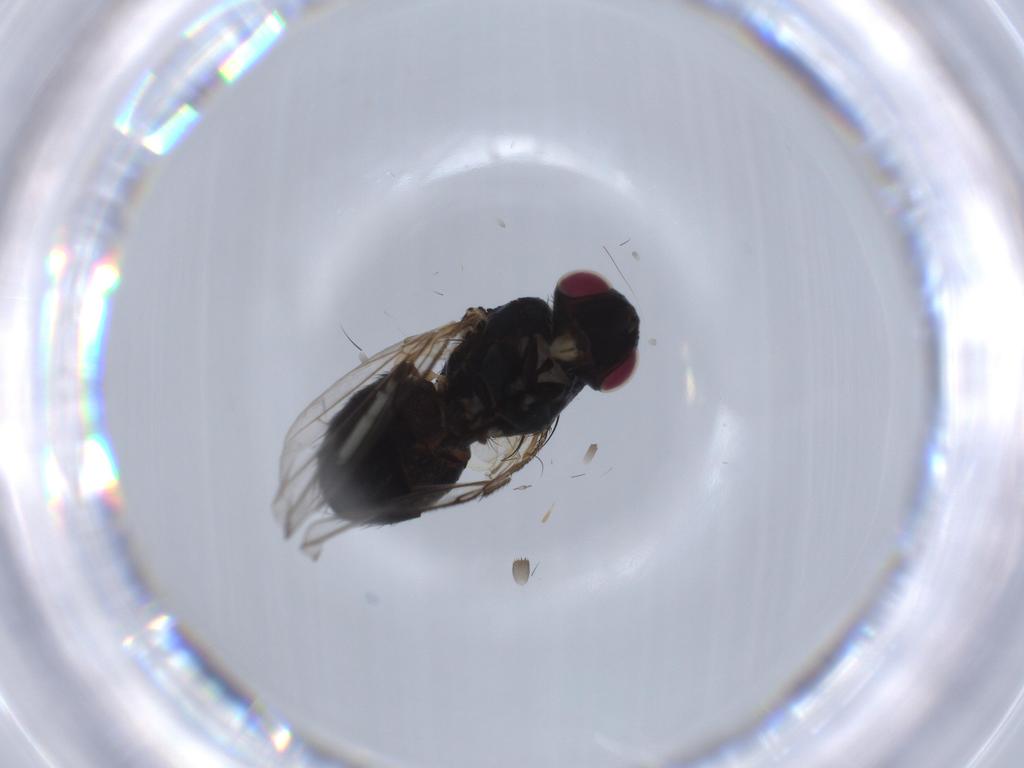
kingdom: Animalia
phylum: Arthropoda
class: Insecta
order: Diptera
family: Tachinidae
